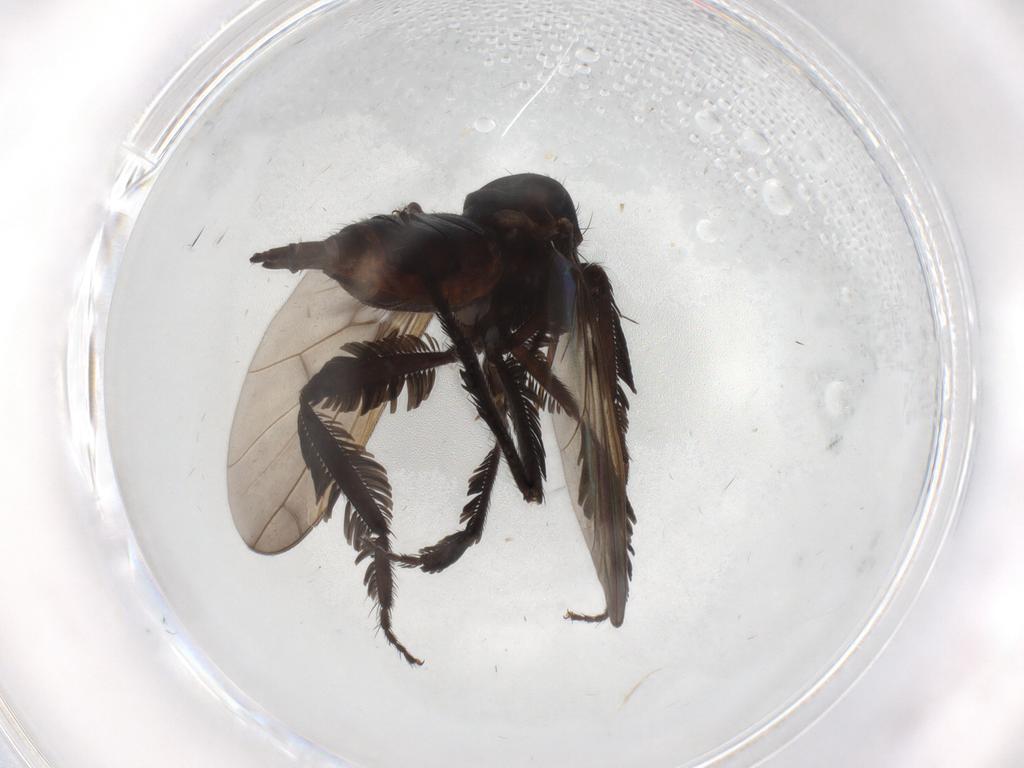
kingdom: Animalia
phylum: Arthropoda
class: Insecta
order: Diptera
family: Empididae
